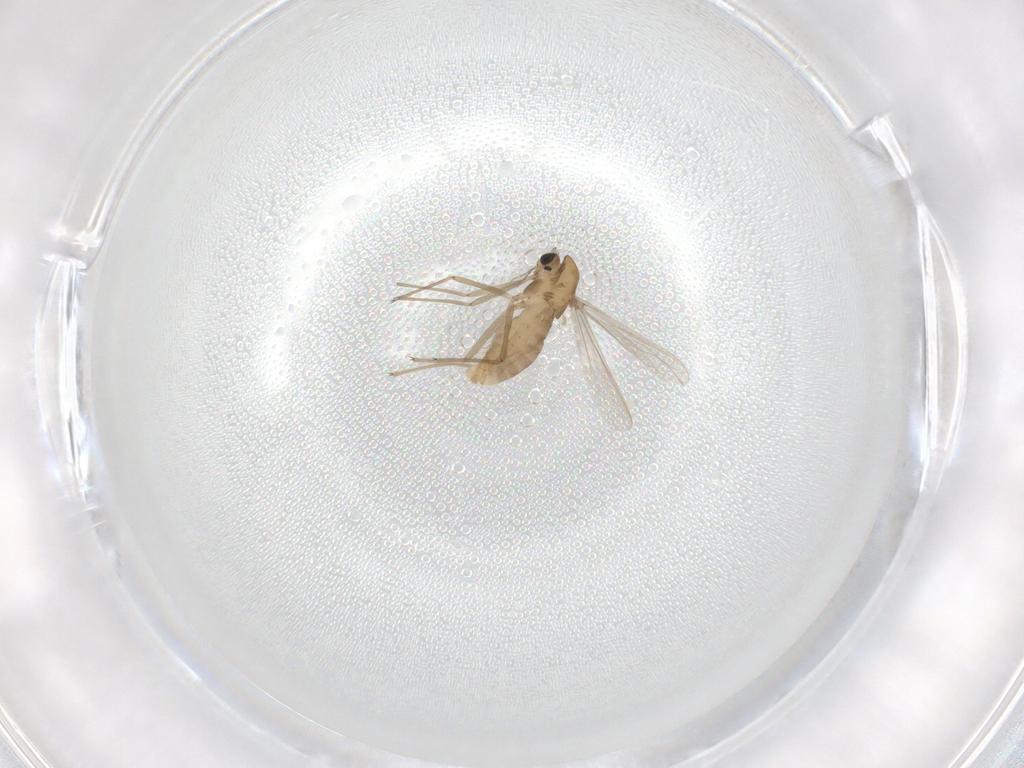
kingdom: Animalia
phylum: Arthropoda
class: Insecta
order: Diptera
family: Chironomidae
